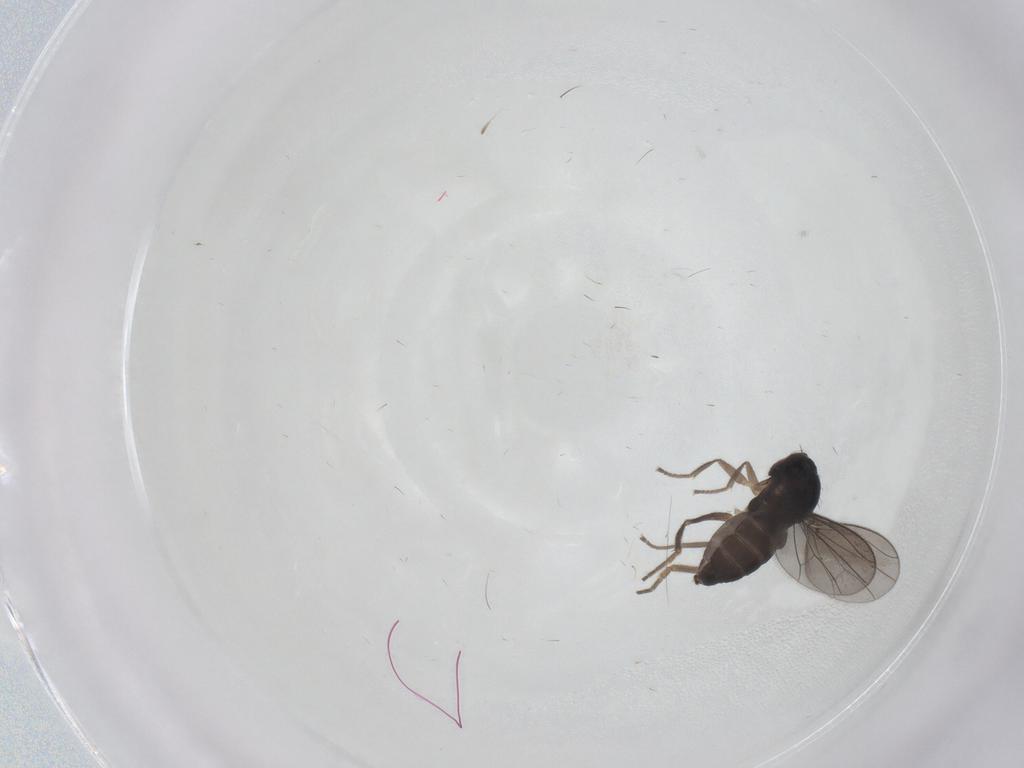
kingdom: Animalia
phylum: Arthropoda
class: Insecta
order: Diptera
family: Dolichopodidae
